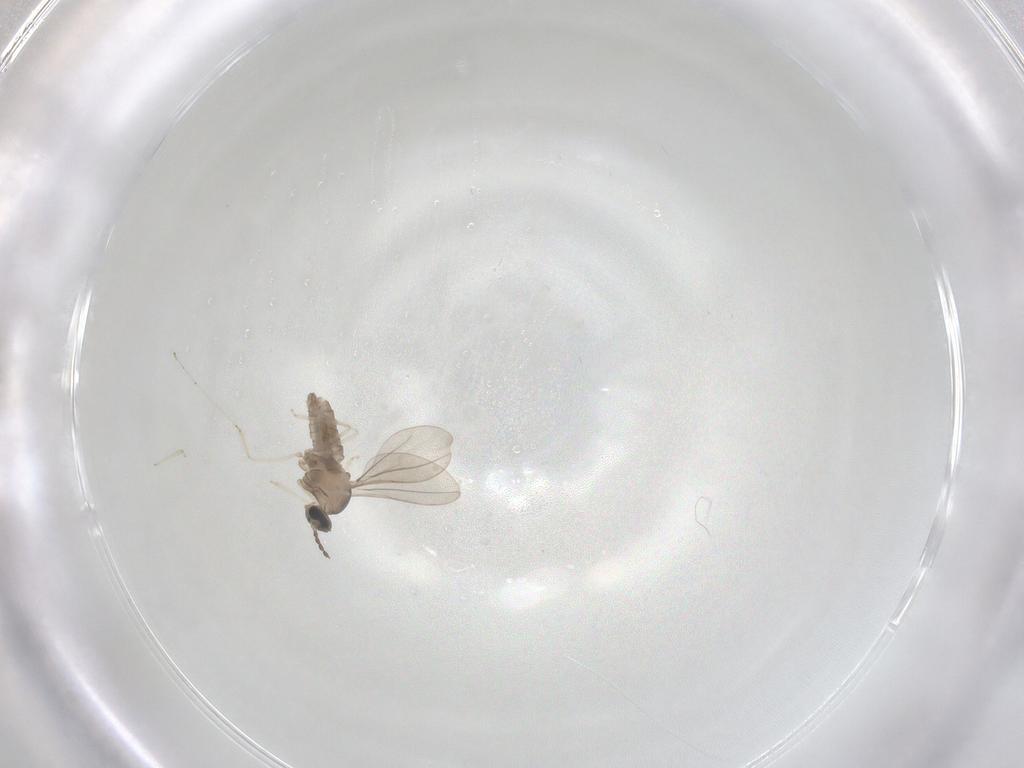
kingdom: Animalia
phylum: Arthropoda
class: Insecta
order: Diptera
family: Cecidomyiidae
